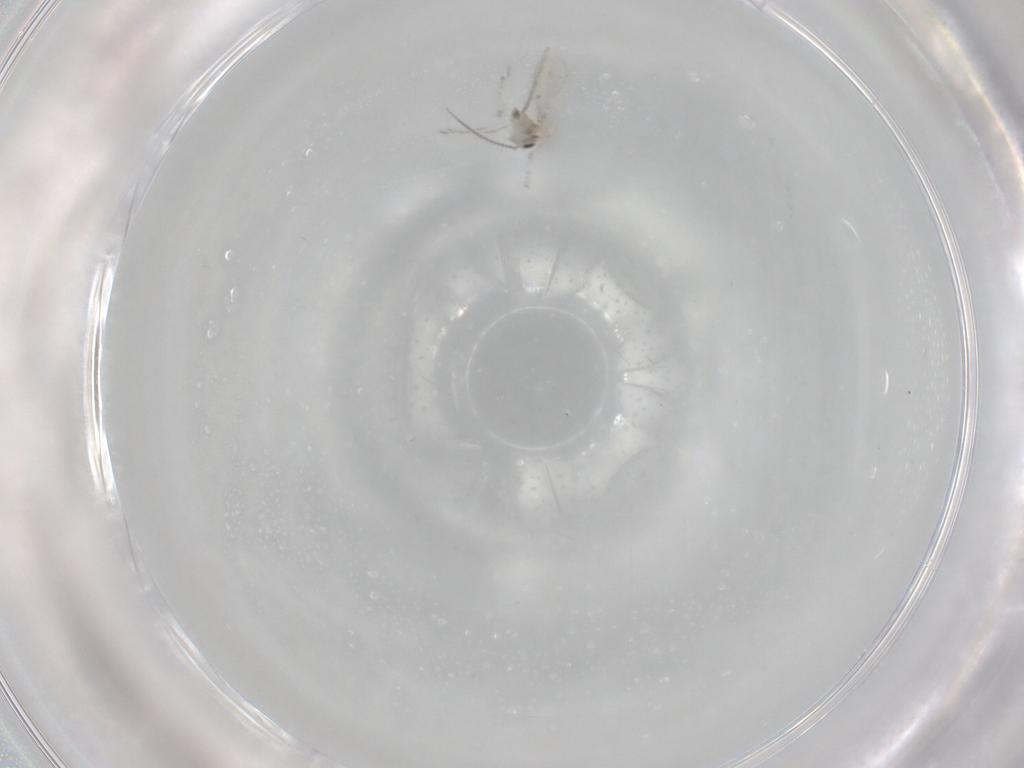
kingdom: Animalia
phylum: Arthropoda
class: Insecta
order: Diptera
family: Cecidomyiidae
